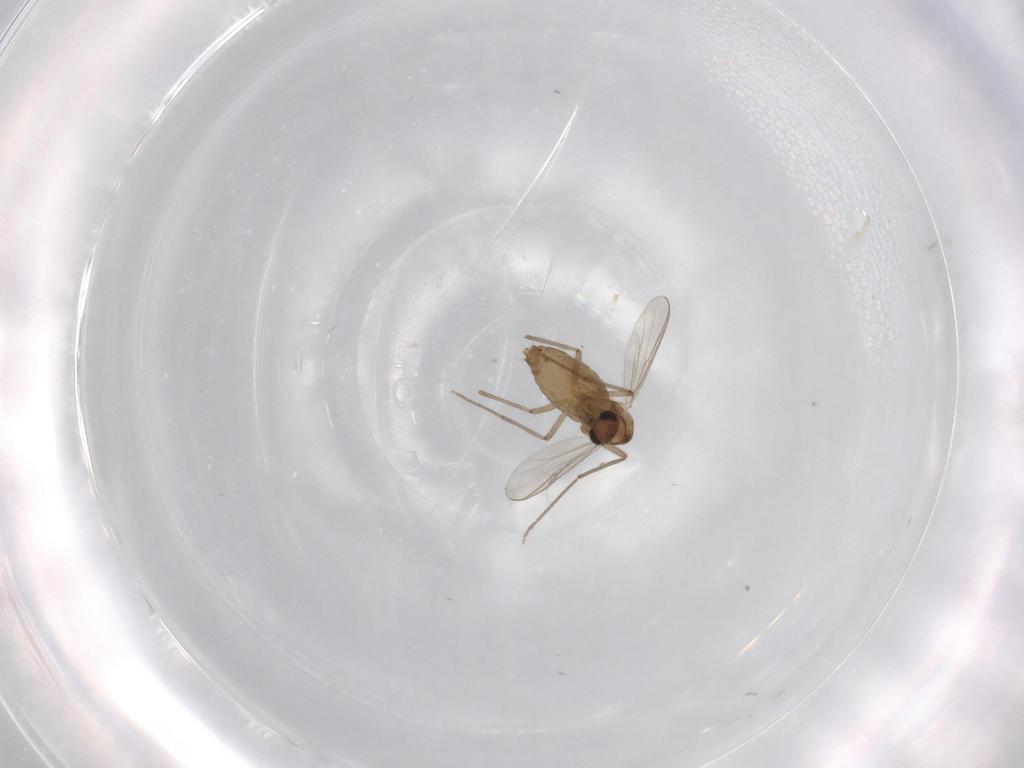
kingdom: Animalia
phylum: Arthropoda
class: Insecta
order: Diptera
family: Chironomidae
